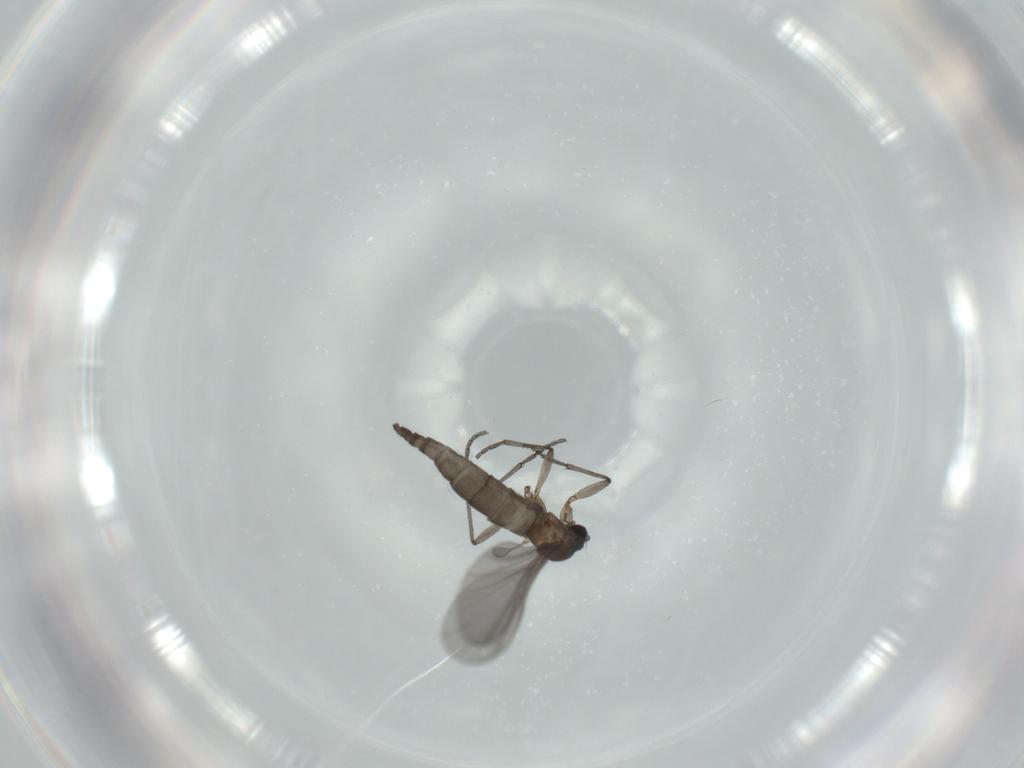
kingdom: Animalia
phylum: Arthropoda
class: Insecta
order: Diptera
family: Sciaridae
